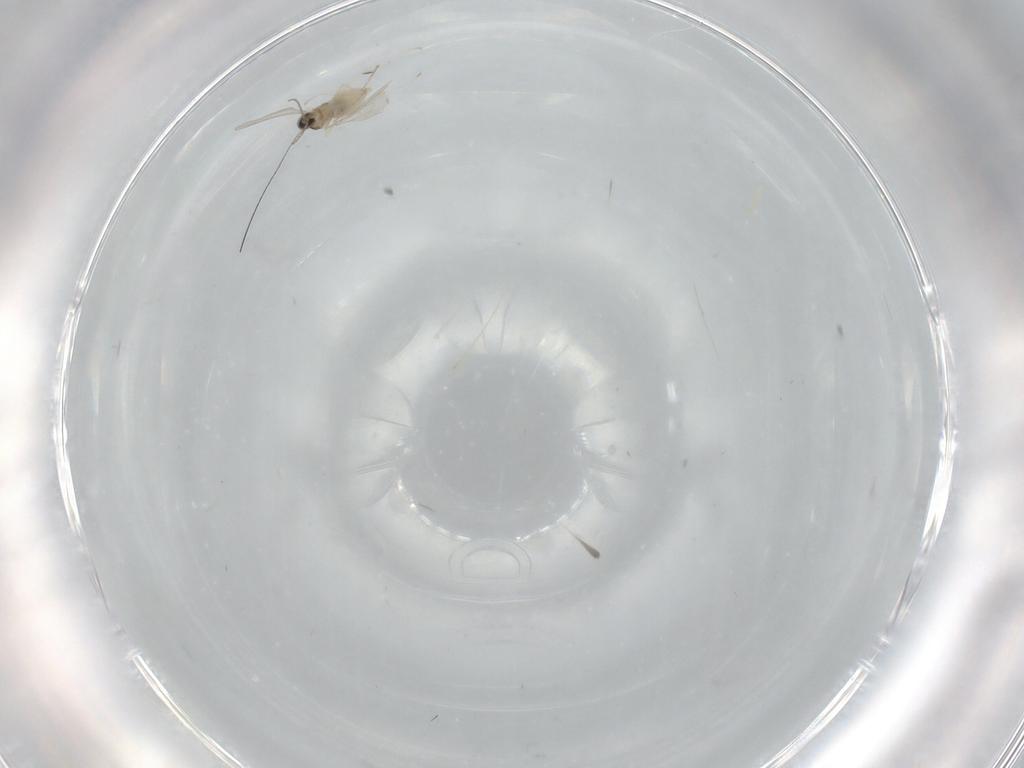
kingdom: Animalia
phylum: Arthropoda
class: Insecta
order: Diptera
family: Cecidomyiidae
